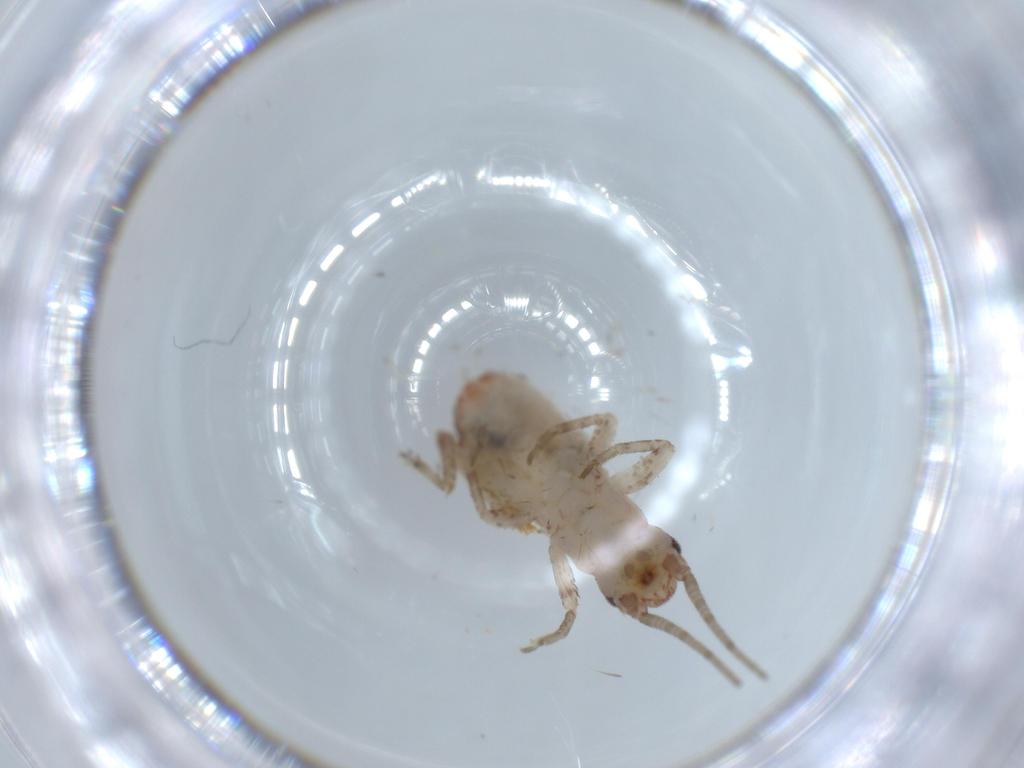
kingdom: Animalia
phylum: Arthropoda
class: Insecta
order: Orthoptera
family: Mogoplistidae
